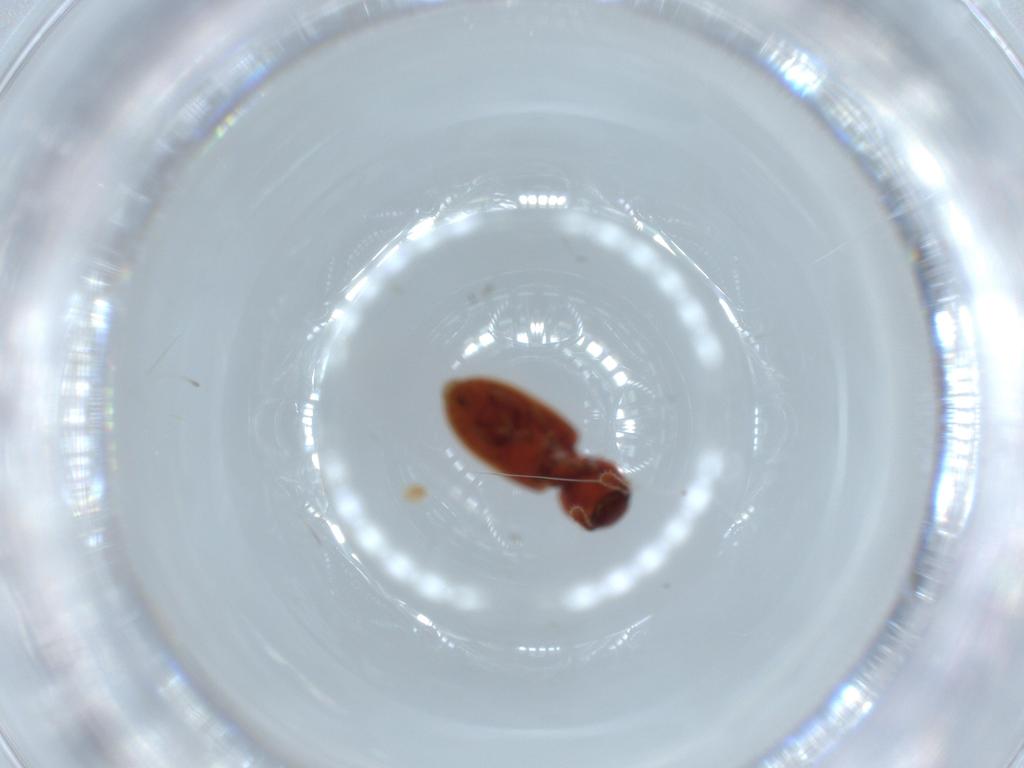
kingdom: Animalia
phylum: Arthropoda
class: Insecta
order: Coleoptera
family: Chrysomelidae
